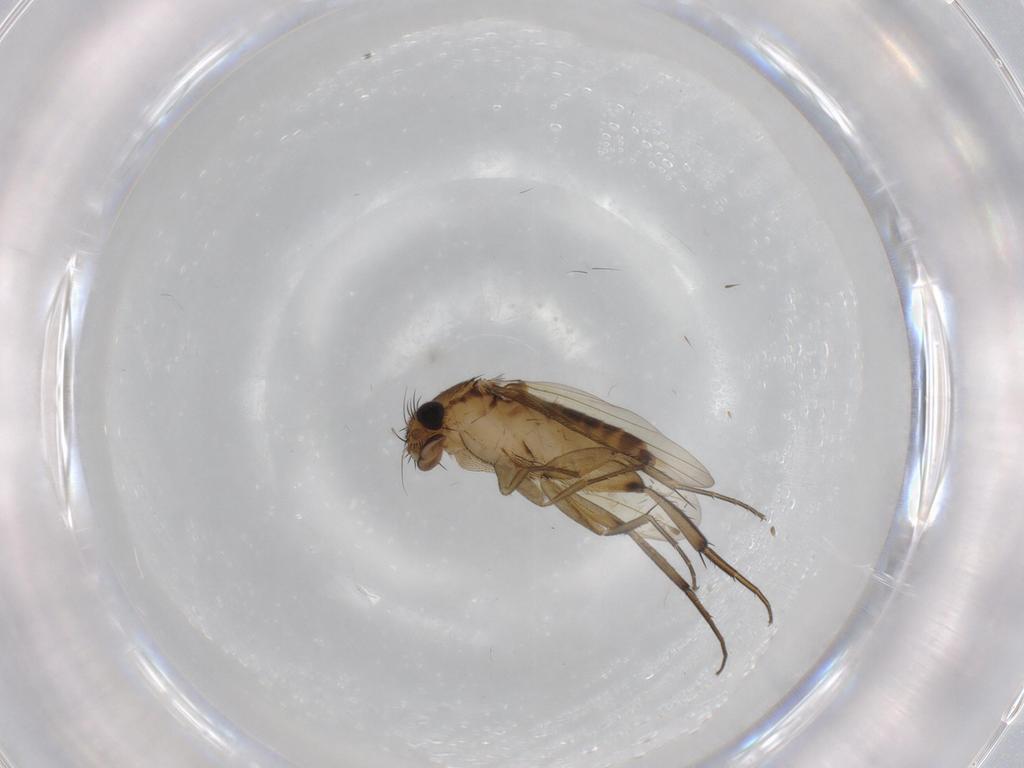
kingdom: Animalia
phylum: Arthropoda
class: Insecta
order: Diptera
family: Phoridae
